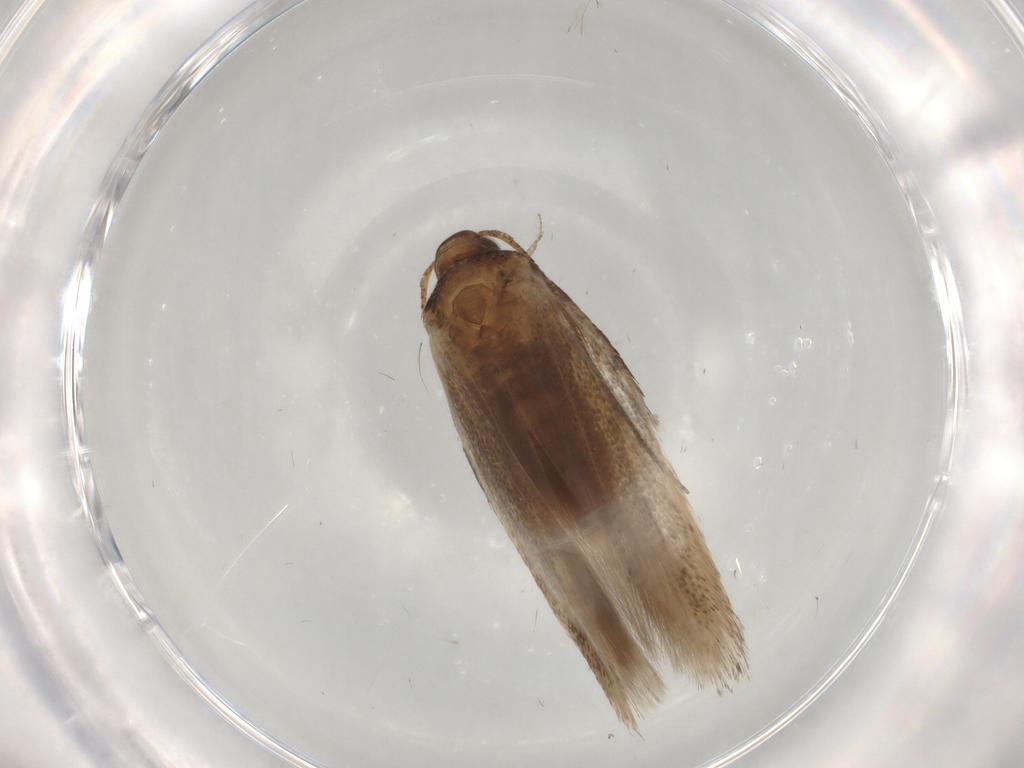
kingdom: Animalia
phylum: Arthropoda
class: Insecta
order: Lepidoptera
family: Gelechiidae
